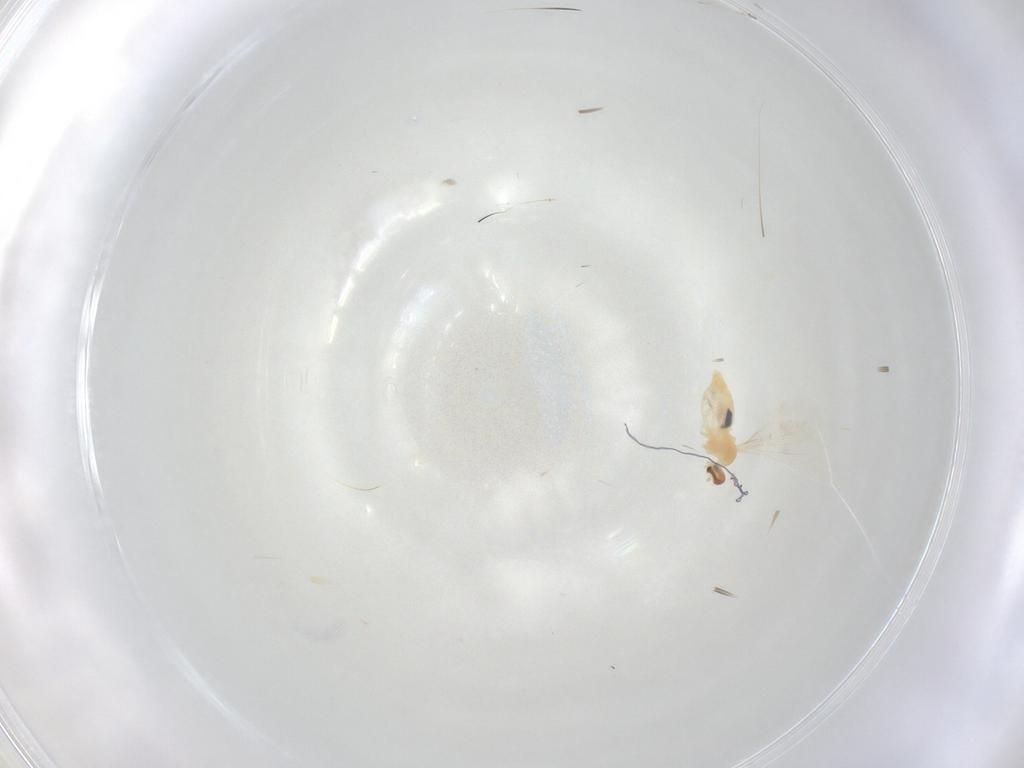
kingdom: Animalia
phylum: Arthropoda
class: Insecta
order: Diptera
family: Cecidomyiidae
